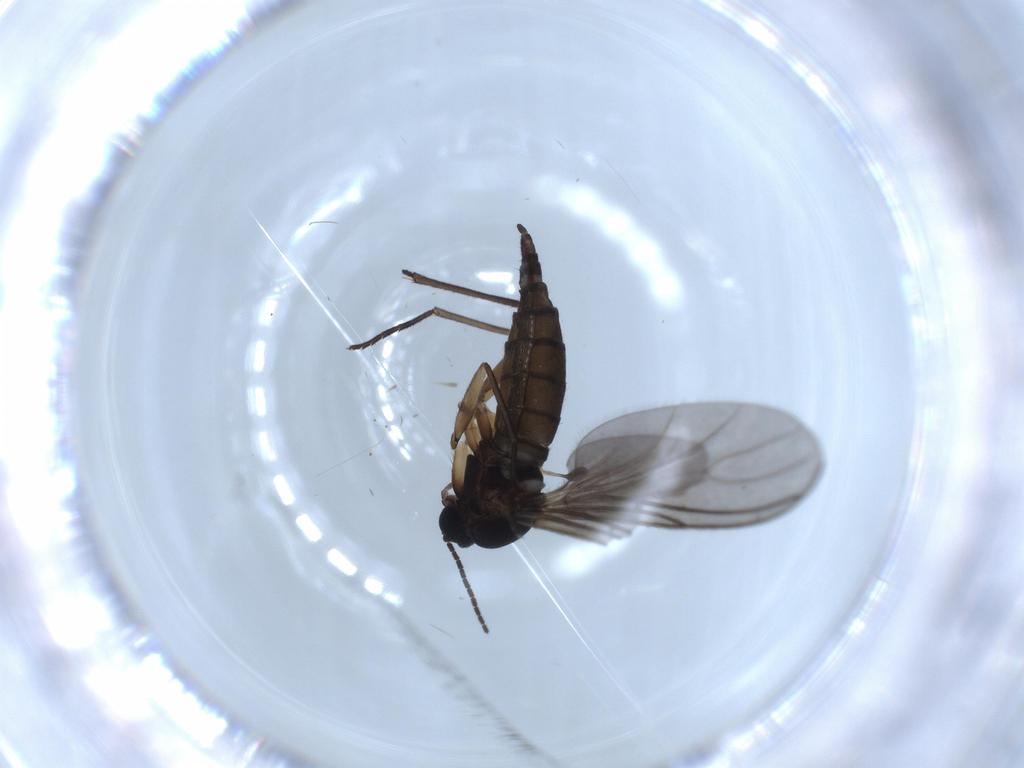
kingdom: Animalia
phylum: Arthropoda
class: Insecta
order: Diptera
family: Sciaridae
